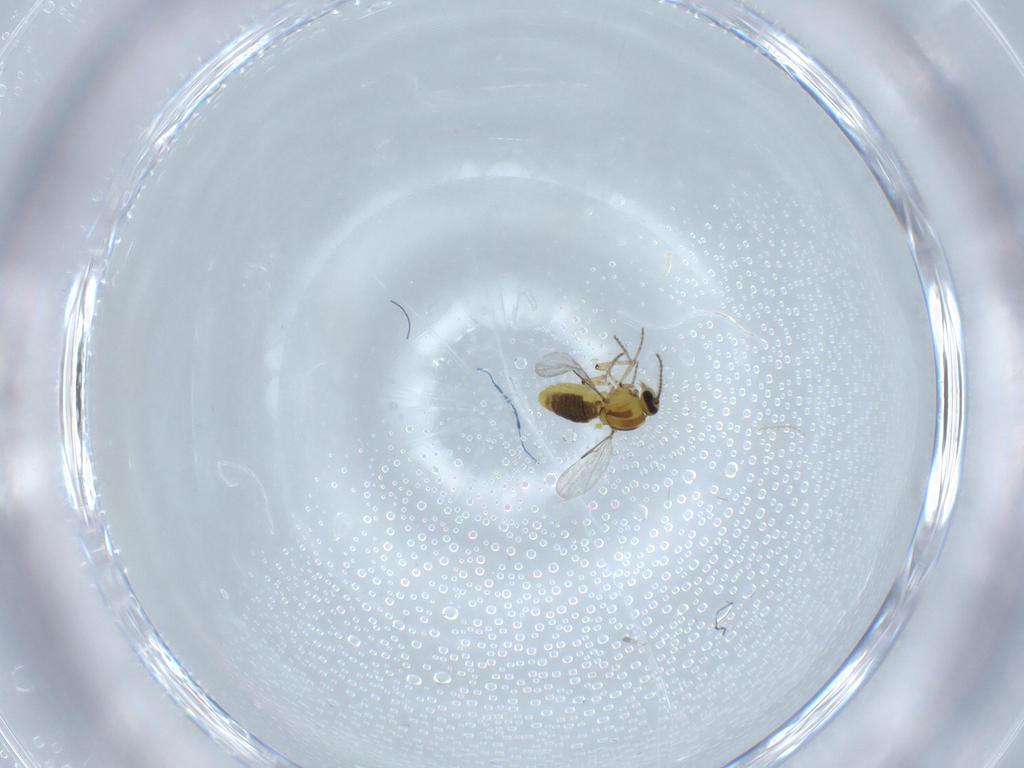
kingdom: Animalia
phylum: Arthropoda
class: Insecta
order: Diptera
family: Ceratopogonidae
